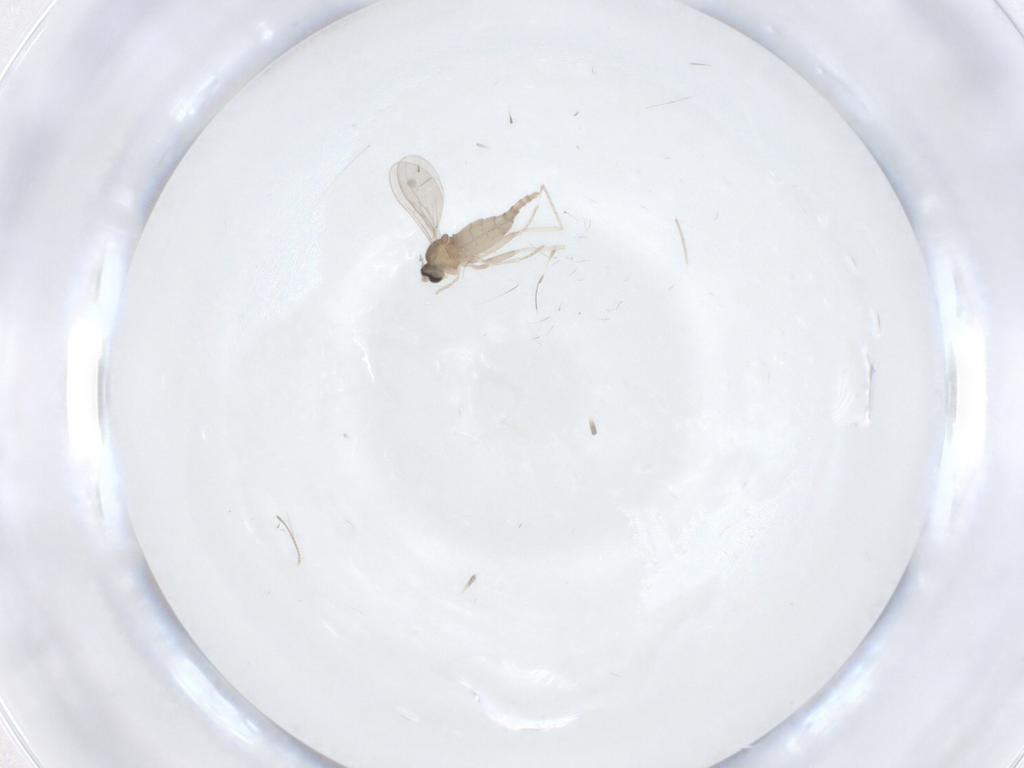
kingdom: Animalia
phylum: Arthropoda
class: Insecta
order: Diptera
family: Cecidomyiidae
